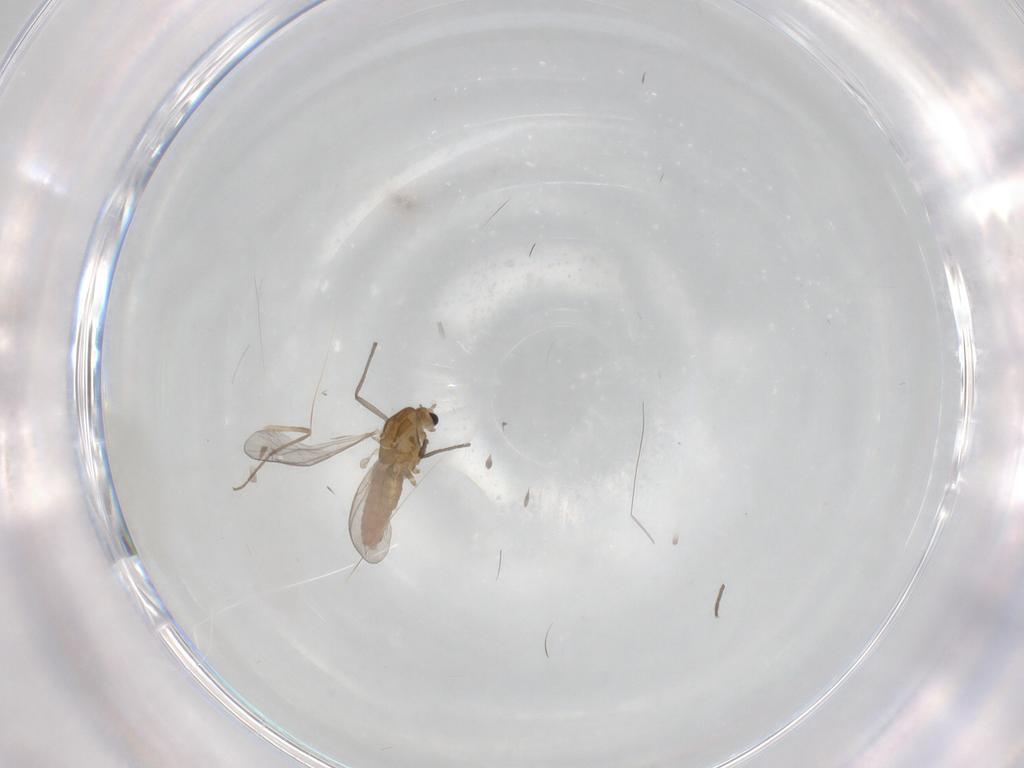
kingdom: Animalia
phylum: Arthropoda
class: Insecta
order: Diptera
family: Chironomidae
